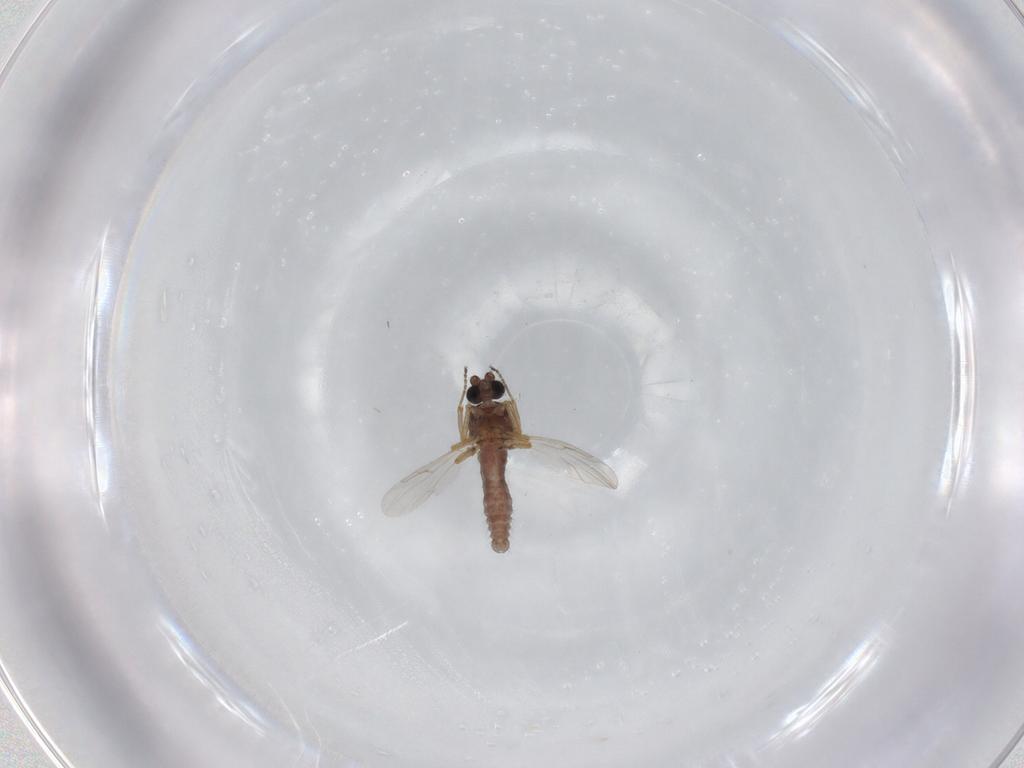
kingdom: Animalia
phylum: Arthropoda
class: Insecta
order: Diptera
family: Ceratopogonidae
